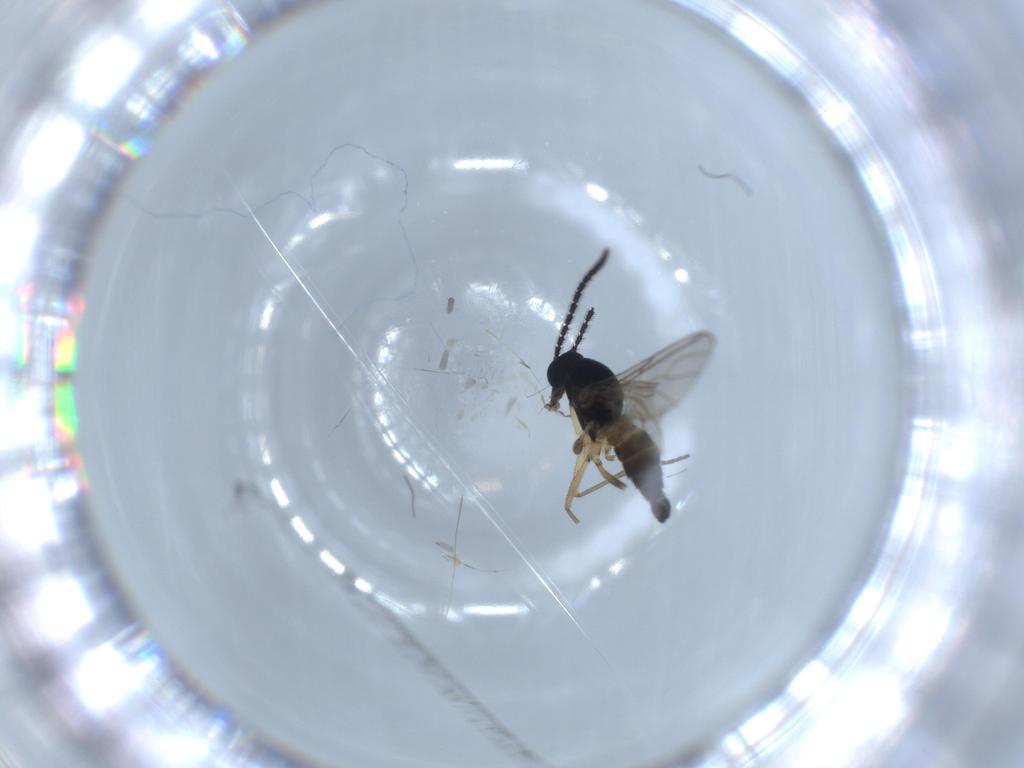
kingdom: Animalia
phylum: Arthropoda
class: Insecta
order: Diptera
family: Sciaridae
